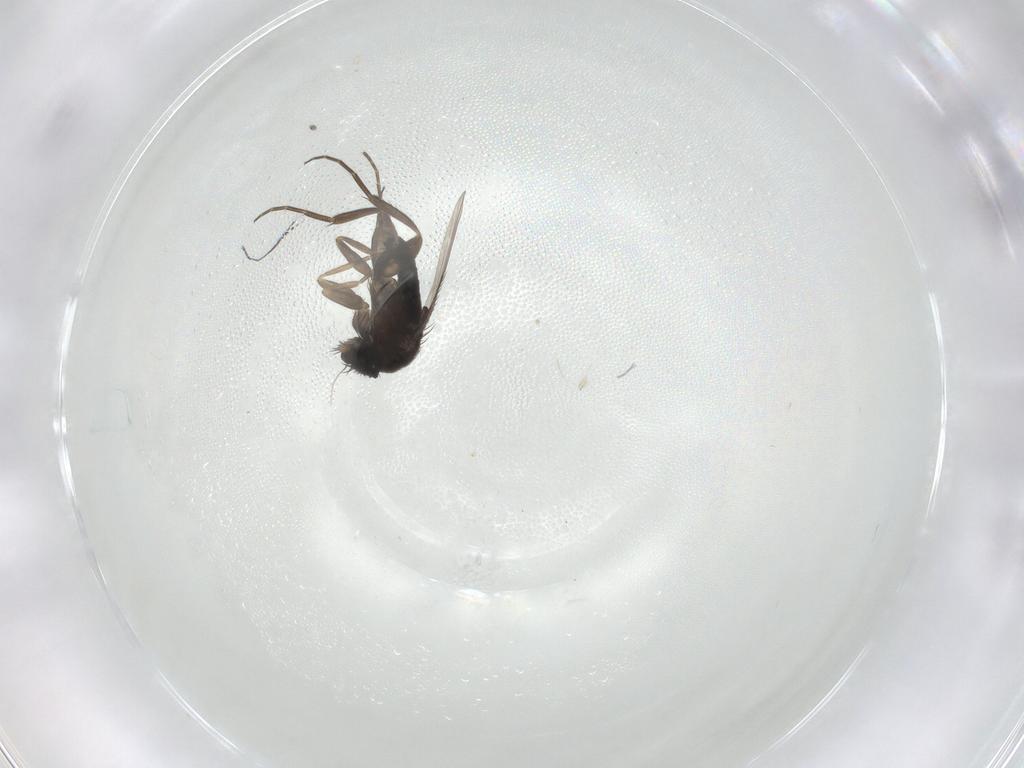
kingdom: Animalia
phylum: Arthropoda
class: Insecta
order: Diptera
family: Phoridae
